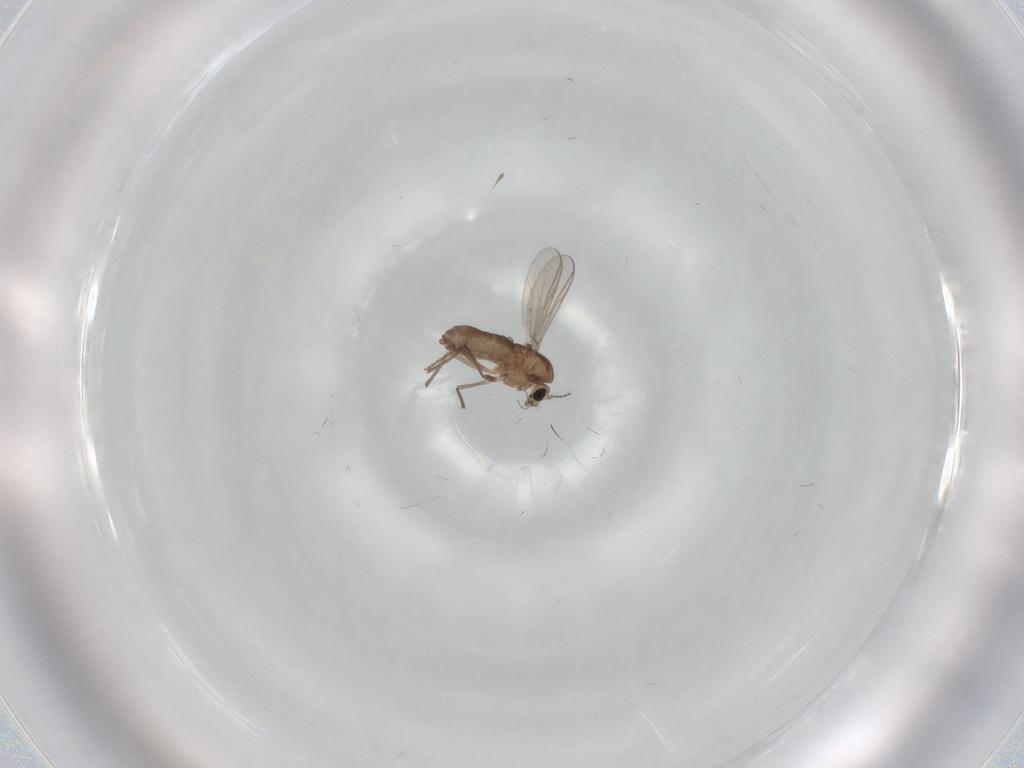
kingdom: Animalia
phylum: Arthropoda
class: Insecta
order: Diptera
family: Chironomidae
